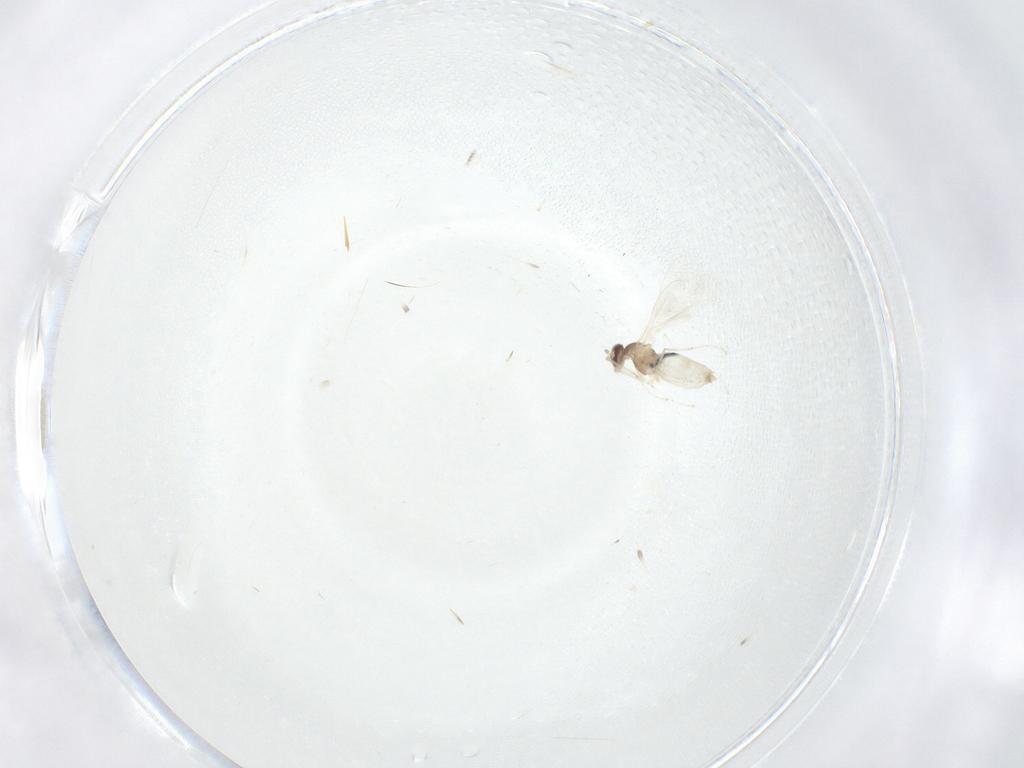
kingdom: Animalia
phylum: Arthropoda
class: Insecta
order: Diptera
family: Cecidomyiidae
